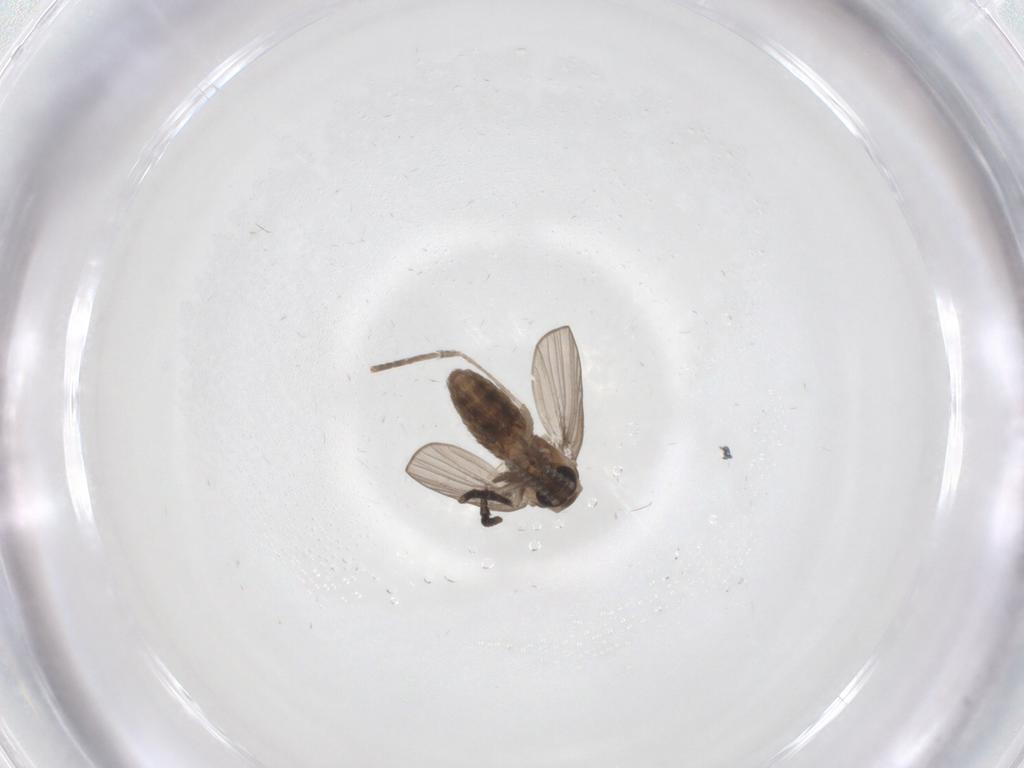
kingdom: Animalia
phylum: Arthropoda
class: Insecta
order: Diptera
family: Psychodidae
